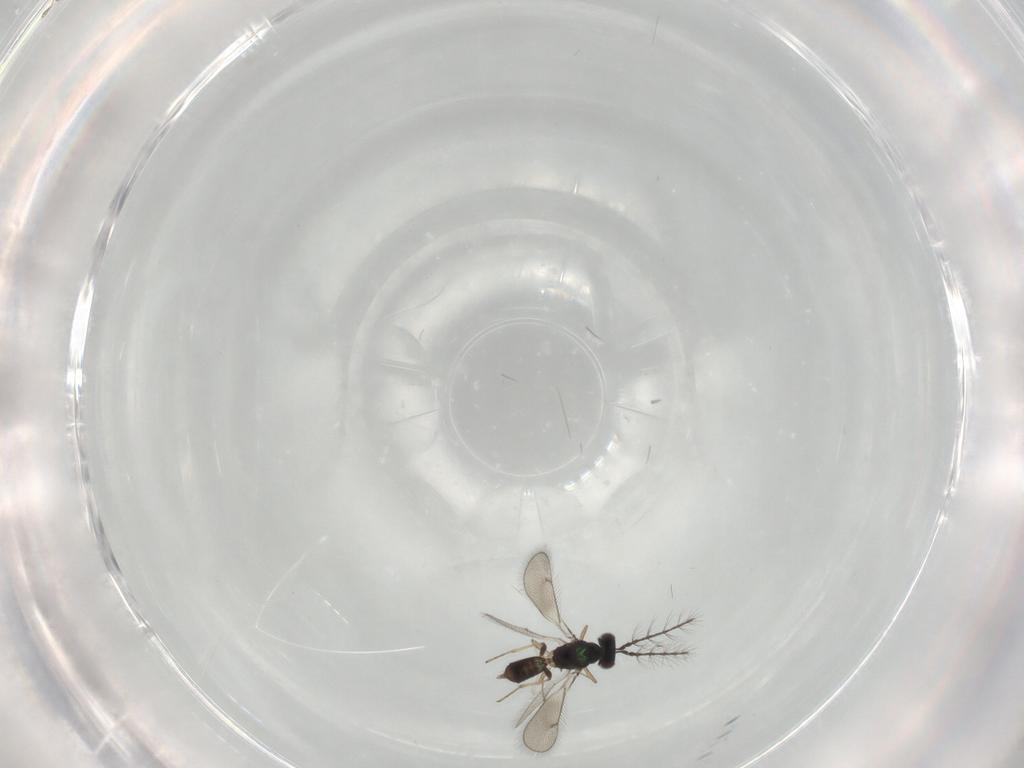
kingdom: Animalia
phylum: Arthropoda
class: Insecta
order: Hymenoptera
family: Eulophidae
